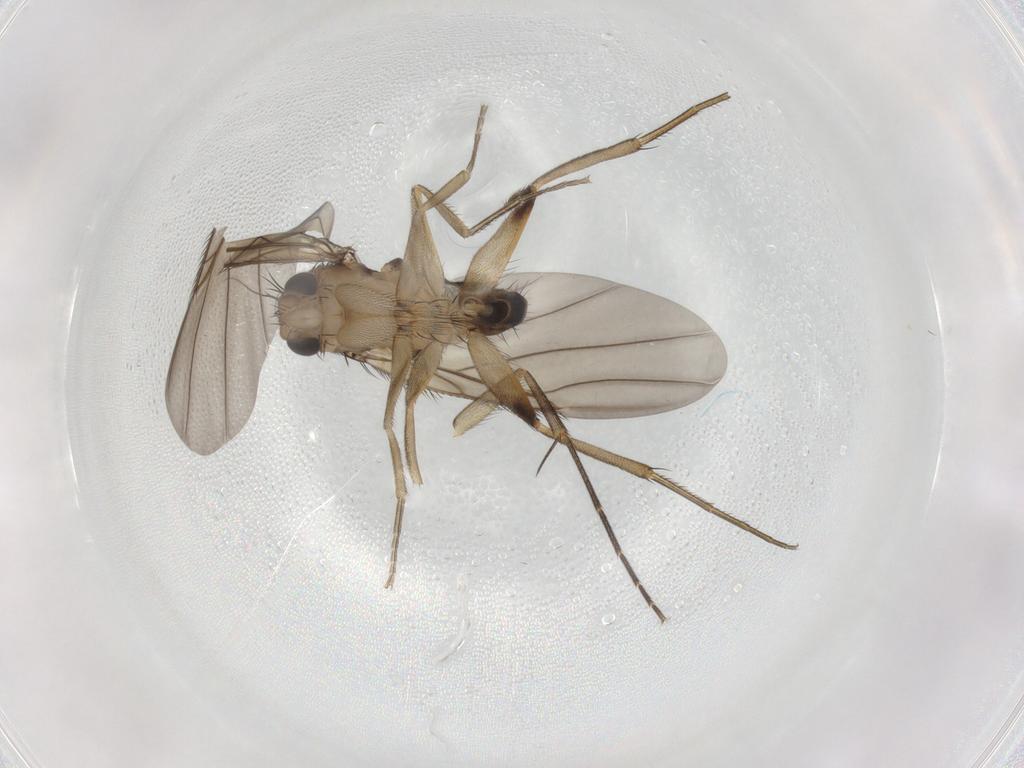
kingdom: Animalia
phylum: Arthropoda
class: Insecta
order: Diptera
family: Phoridae
